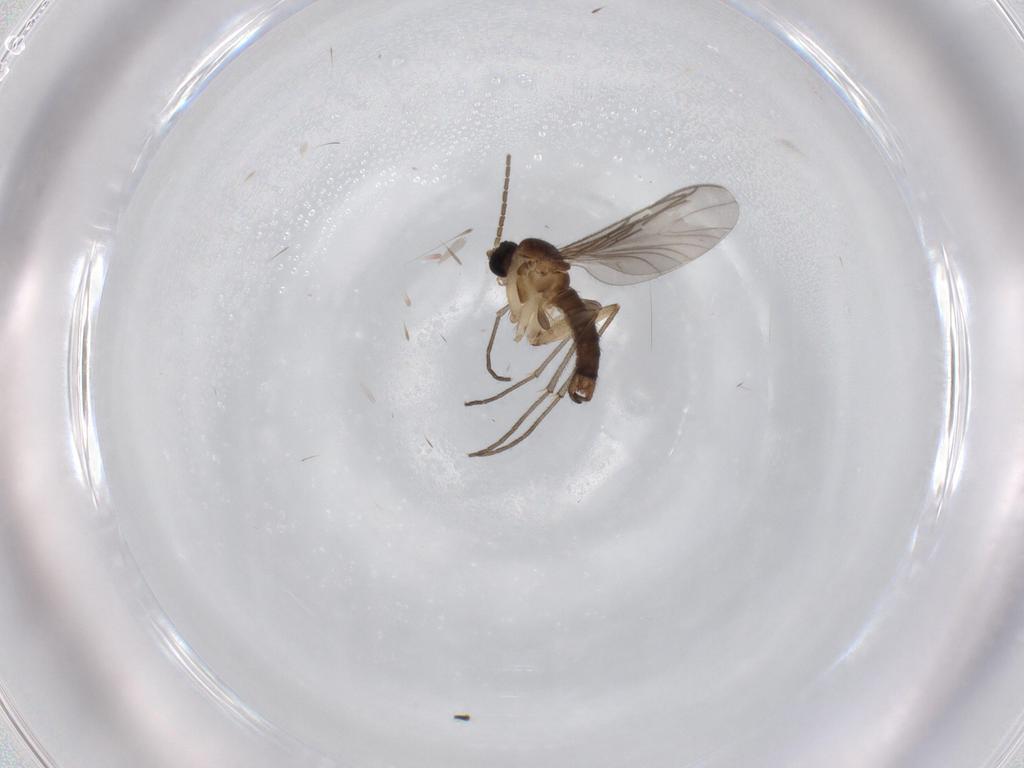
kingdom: Animalia
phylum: Arthropoda
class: Insecta
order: Diptera
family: Sciaridae
